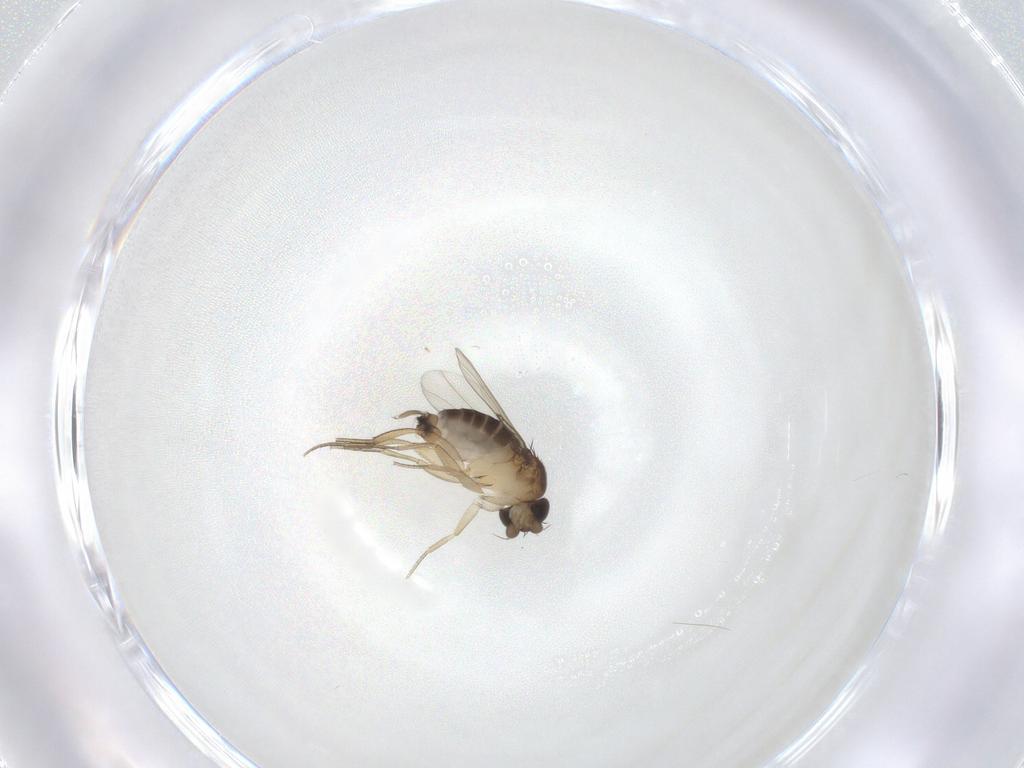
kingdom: Animalia
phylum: Arthropoda
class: Insecta
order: Diptera
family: Phoridae
